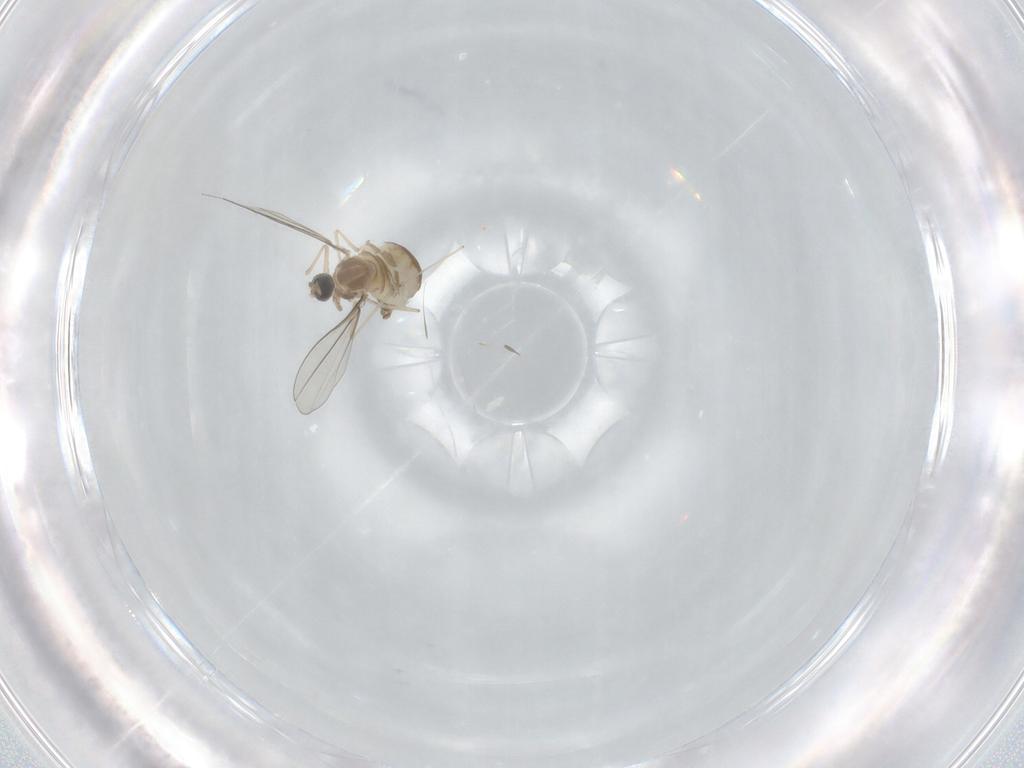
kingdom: Animalia
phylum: Arthropoda
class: Insecta
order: Diptera
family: Cecidomyiidae
